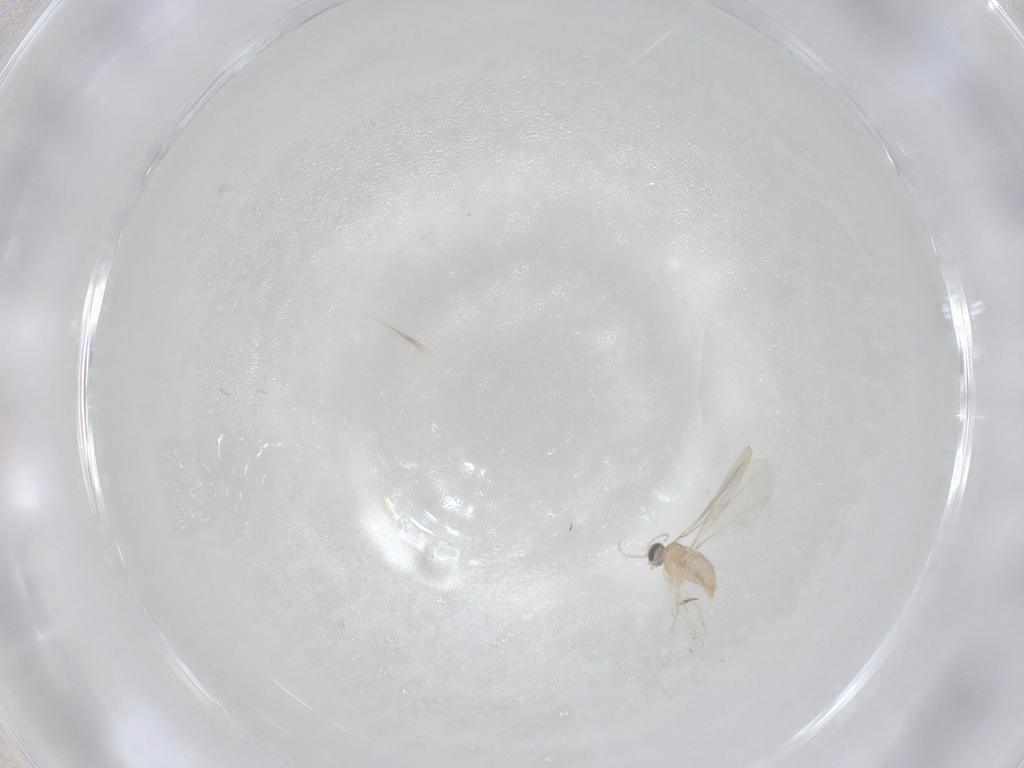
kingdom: Animalia
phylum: Arthropoda
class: Insecta
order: Diptera
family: Cecidomyiidae
